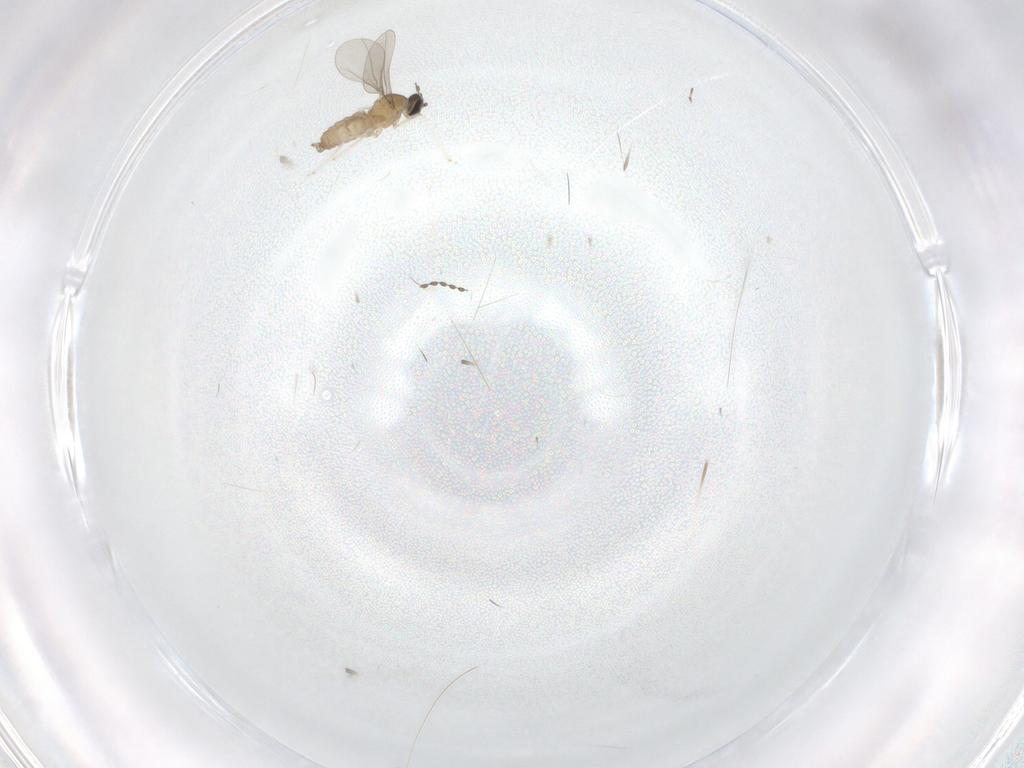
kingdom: Animalia
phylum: Arthropoda
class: Insecta
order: Diptera
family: Cecidomyiidae
